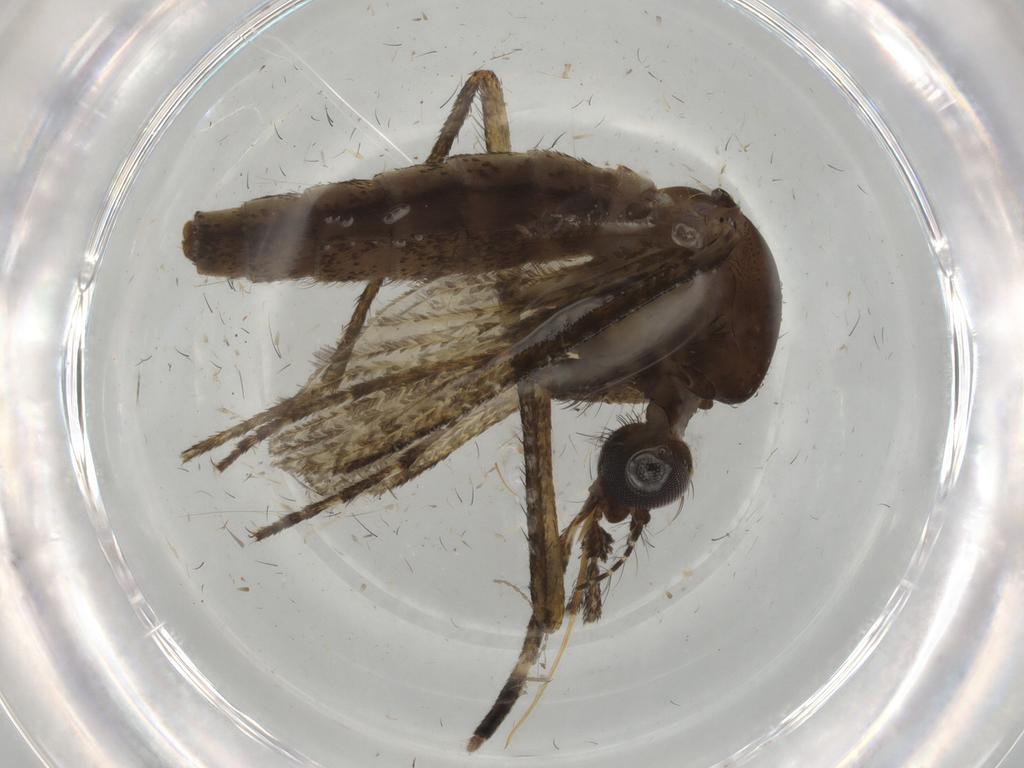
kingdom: Animalia
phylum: Arthropoda
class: Insecta
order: Diptera
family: Culicidae
